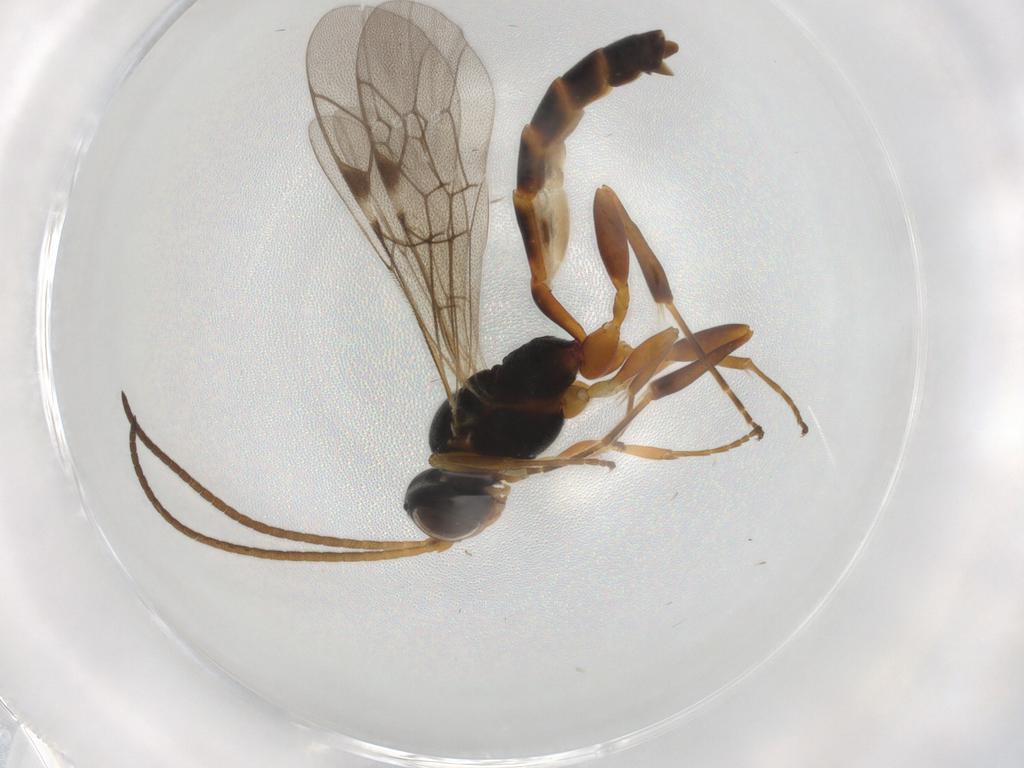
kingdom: Animalia
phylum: Arthropoda
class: Insecta
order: Hymenoptera
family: Ichneumonidae
